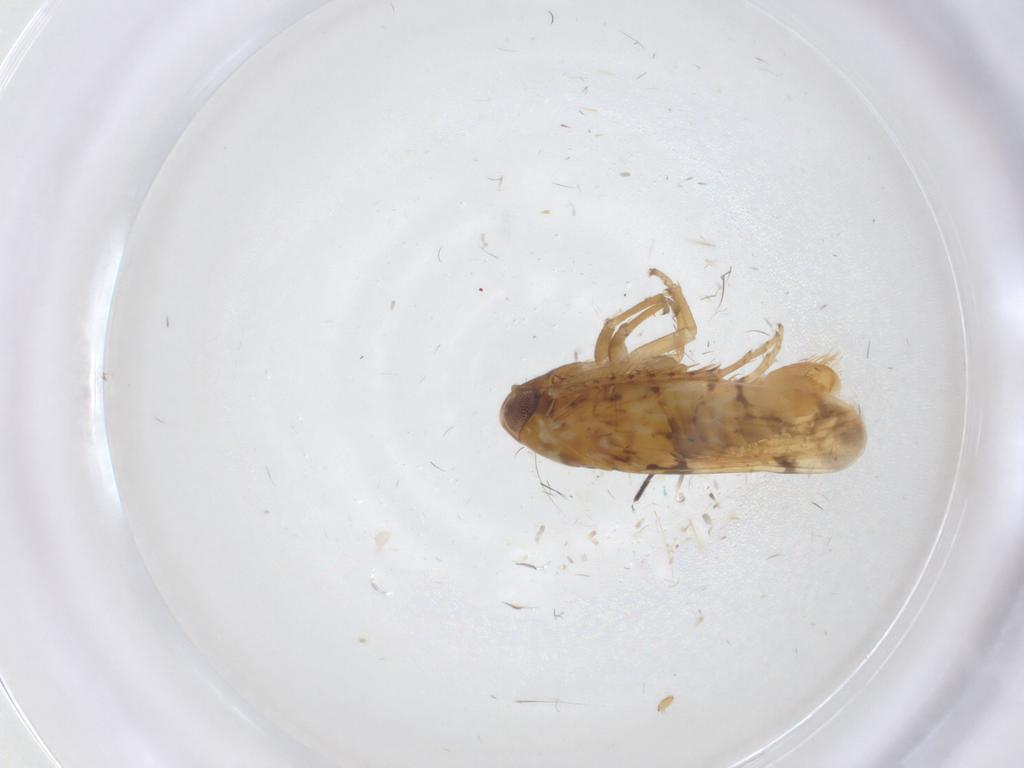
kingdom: Animalia
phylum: Arthropoda
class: Insecta
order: Hemiptera
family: Cicadellidae
